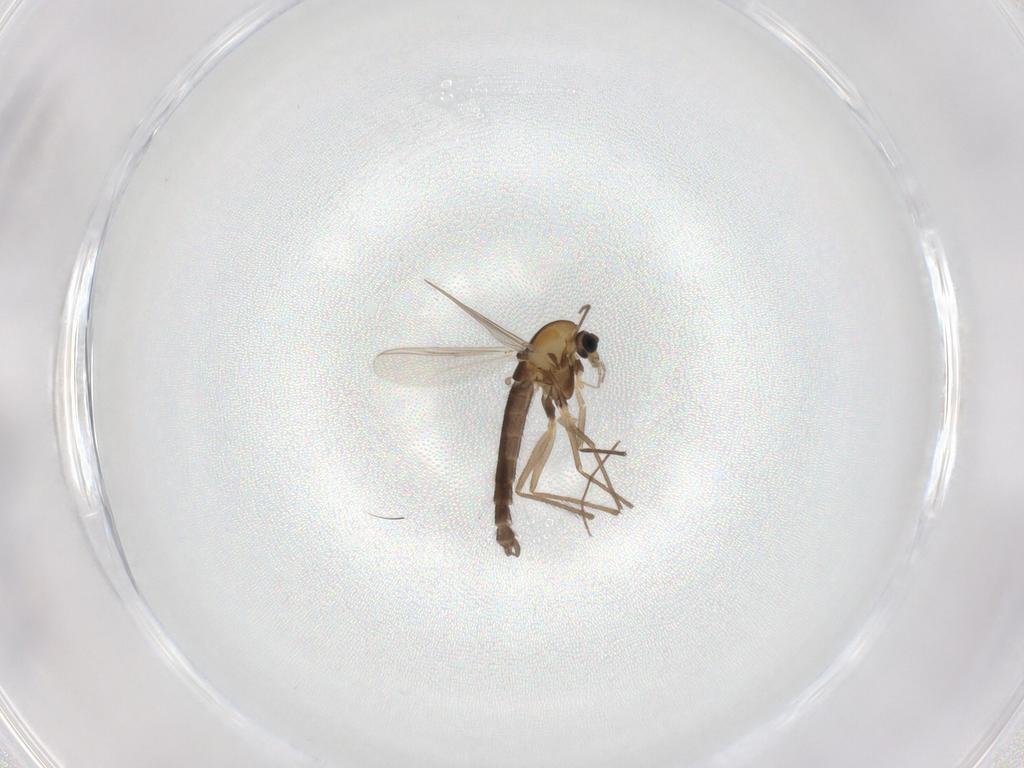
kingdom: Animalia
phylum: Arthropoda
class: Insecta
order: Diptera
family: Chironomidae
